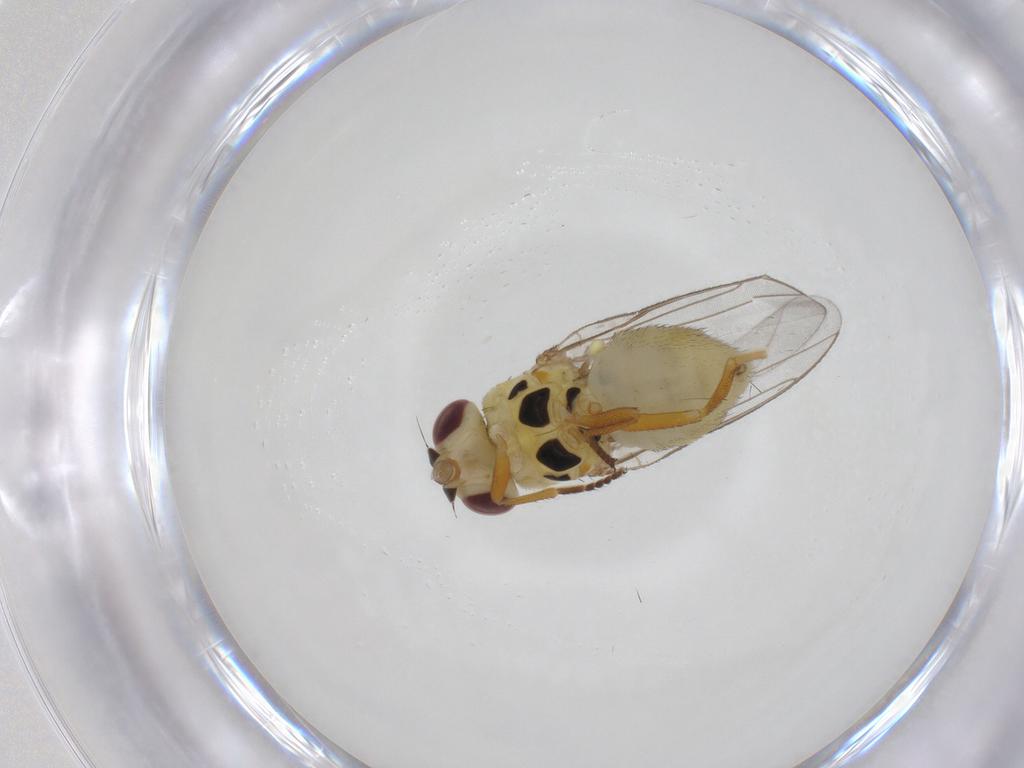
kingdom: Animalia
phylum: Arthropoda
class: Insecta
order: Diptera
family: Chloropidae
